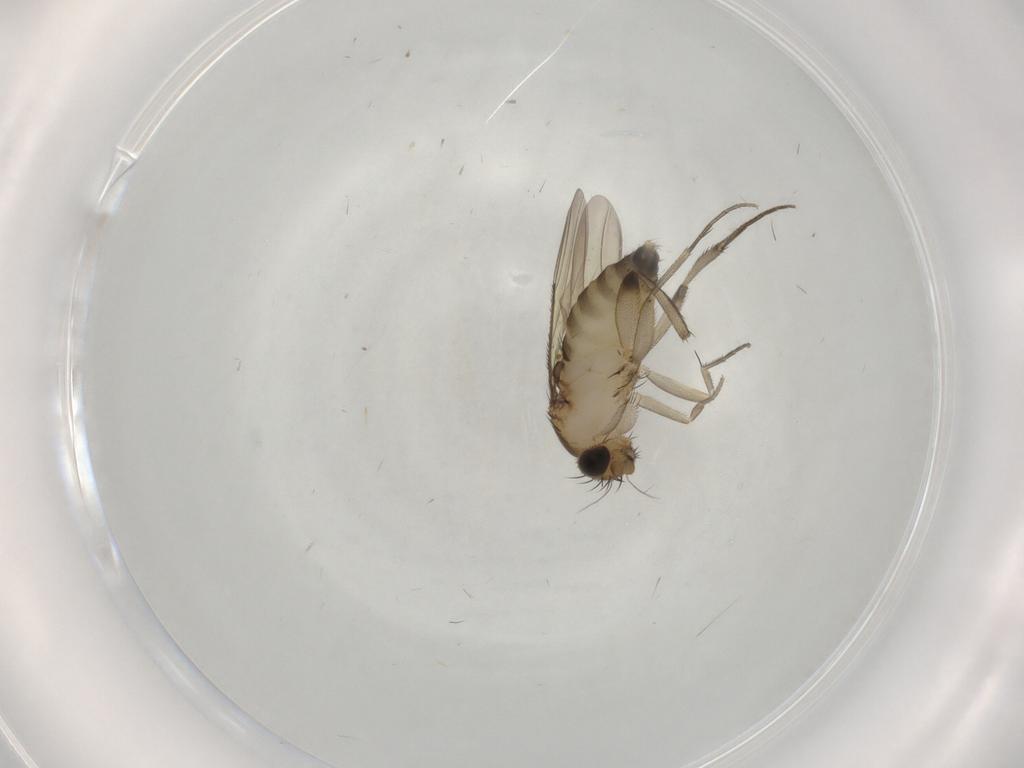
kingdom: Animalia
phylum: Arthropoda
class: Insecta
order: Diptera
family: Phoridae
